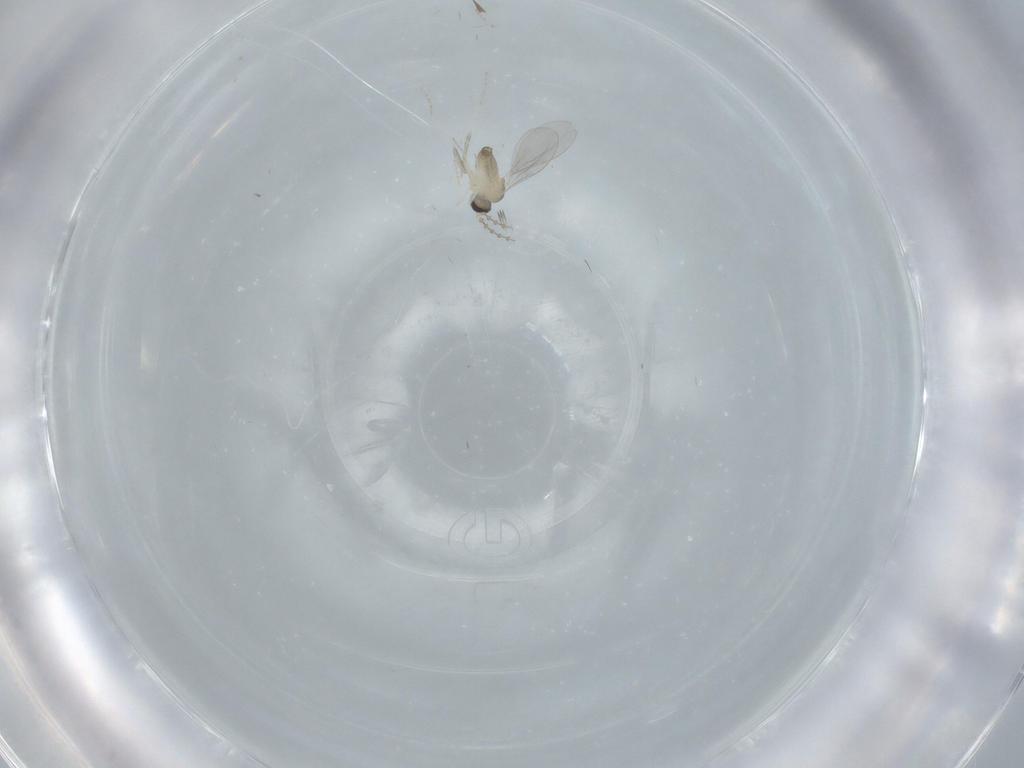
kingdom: Animalia
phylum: Arthropoda
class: Insecta
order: Diptera
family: Cecidomyiidae
